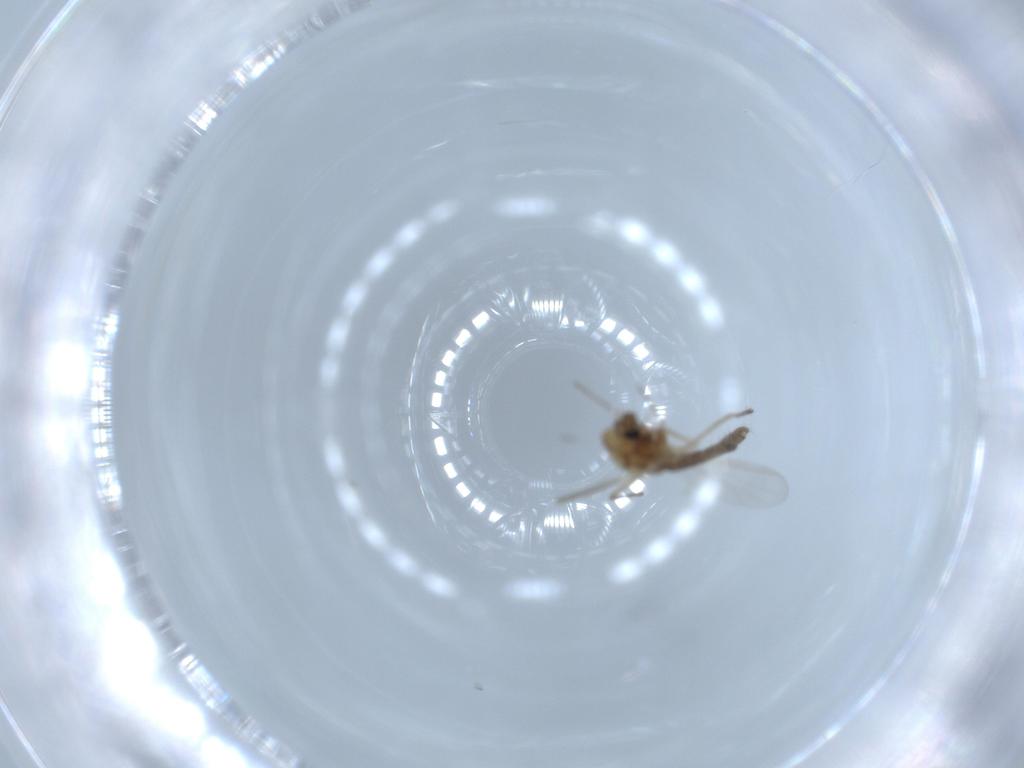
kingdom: Animalia
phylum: Arthropoda
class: Insecta
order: Diptera
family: Chironomidae
